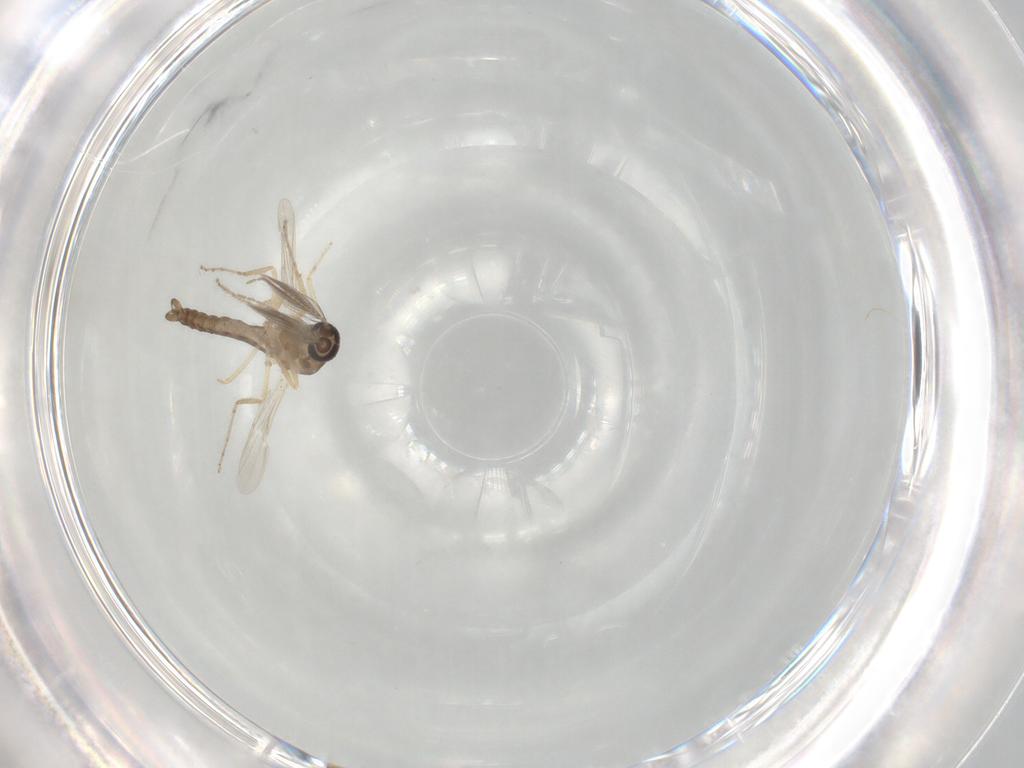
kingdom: Animalia
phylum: Arthropoda
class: Insecta
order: Diptera
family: Ceratopogonidae
